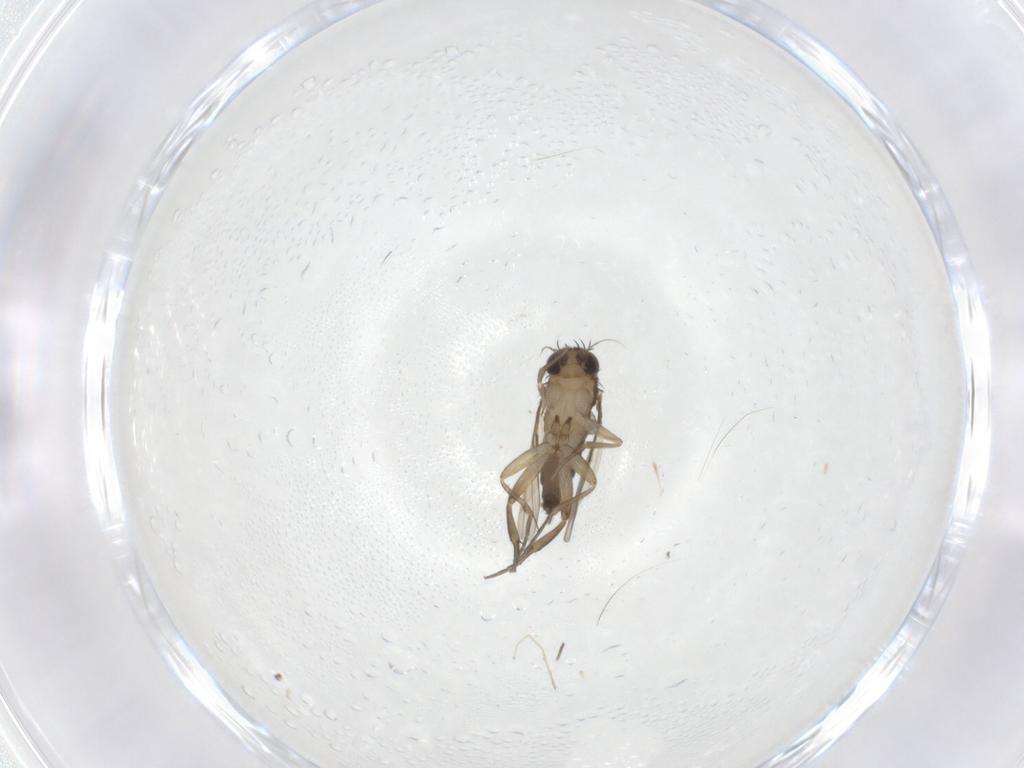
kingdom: Animalia
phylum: Arthropoda
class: Insecta
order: Diptera
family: Phoridae
